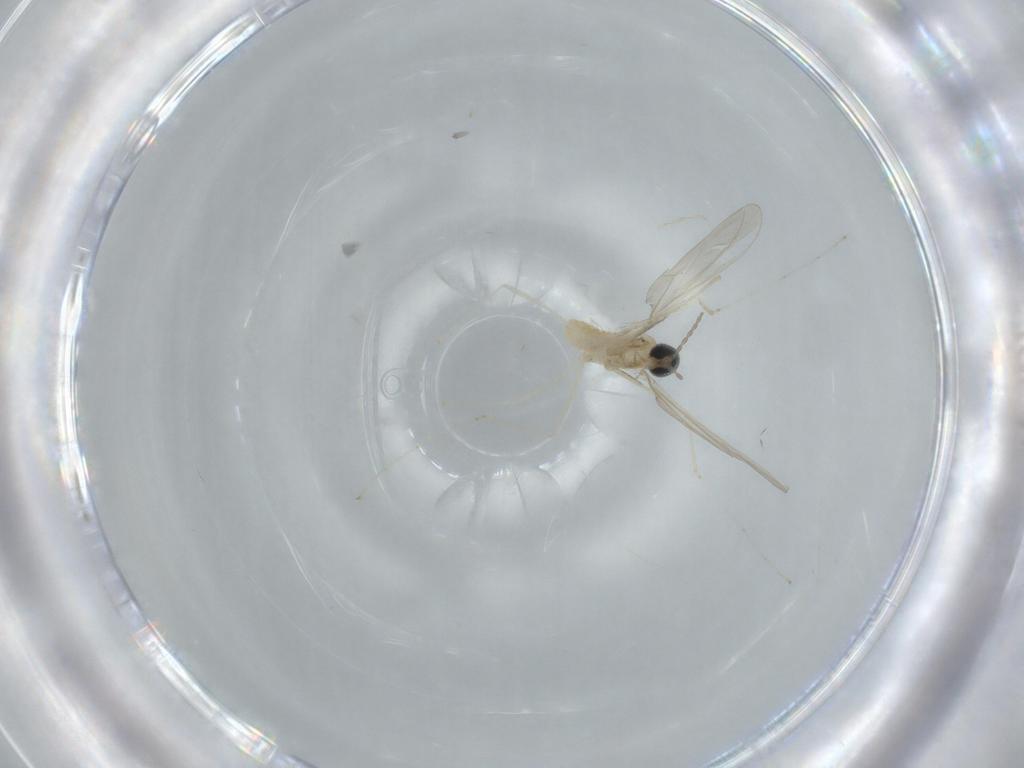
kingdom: Animalia
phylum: Arthropoda
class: Insecta
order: Diptera
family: Cecidomyiidae
